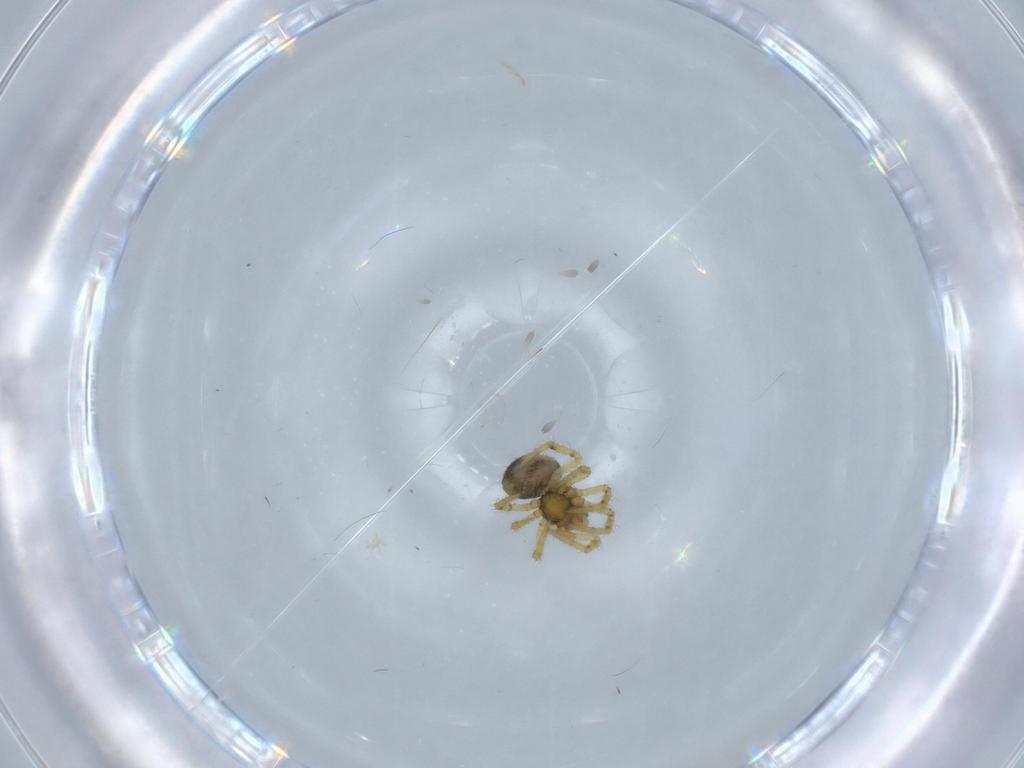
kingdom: Animalia
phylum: Arthropoda
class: Arachnida
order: Araneae
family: Theridiidae
